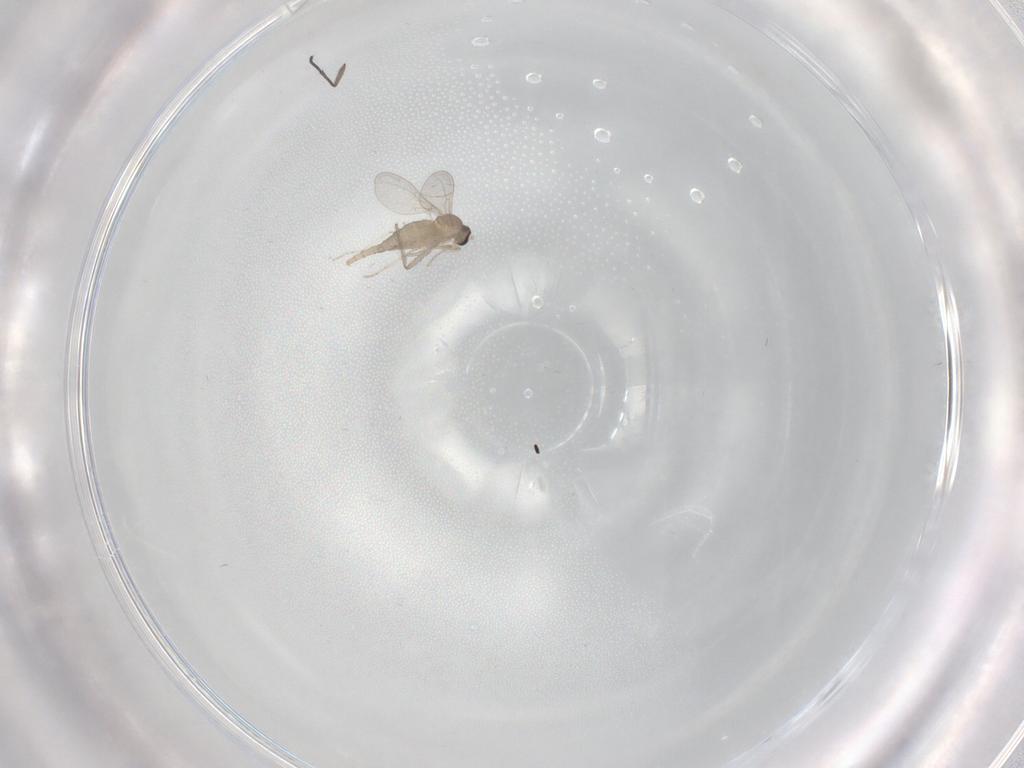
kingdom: Animalia
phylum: Arthropoda
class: Insecta
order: Diptera
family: Cecidomyiidae
